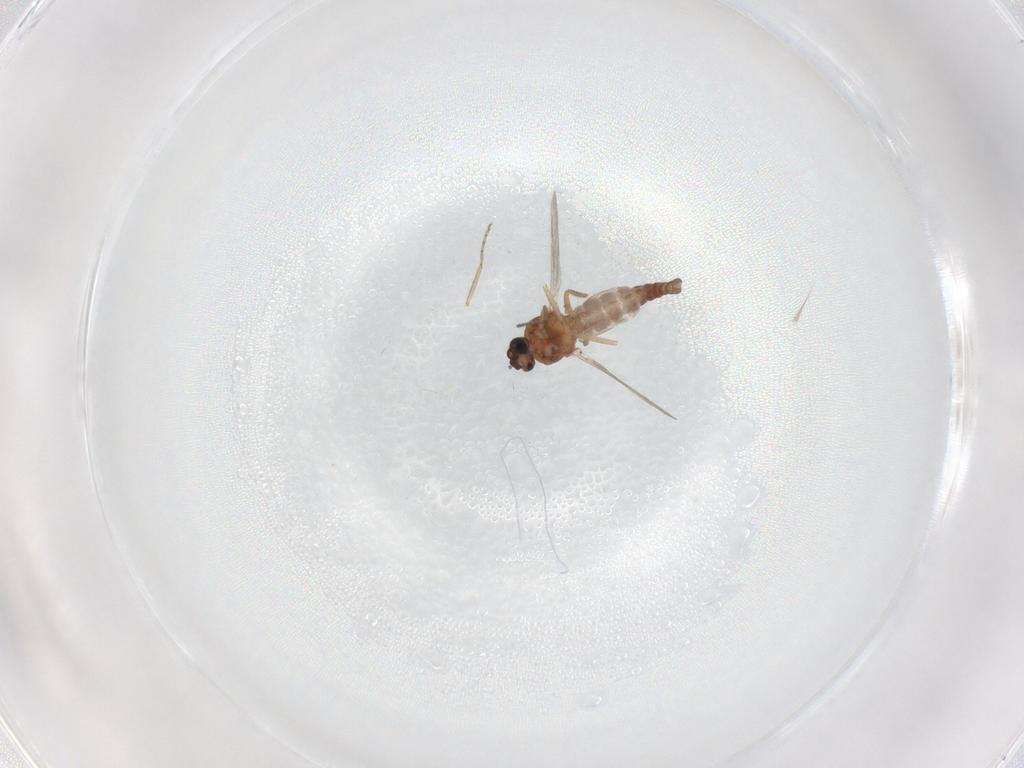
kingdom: Animalia
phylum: Arthropoda
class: Insecta
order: Diptera
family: Ceratopogonidae
